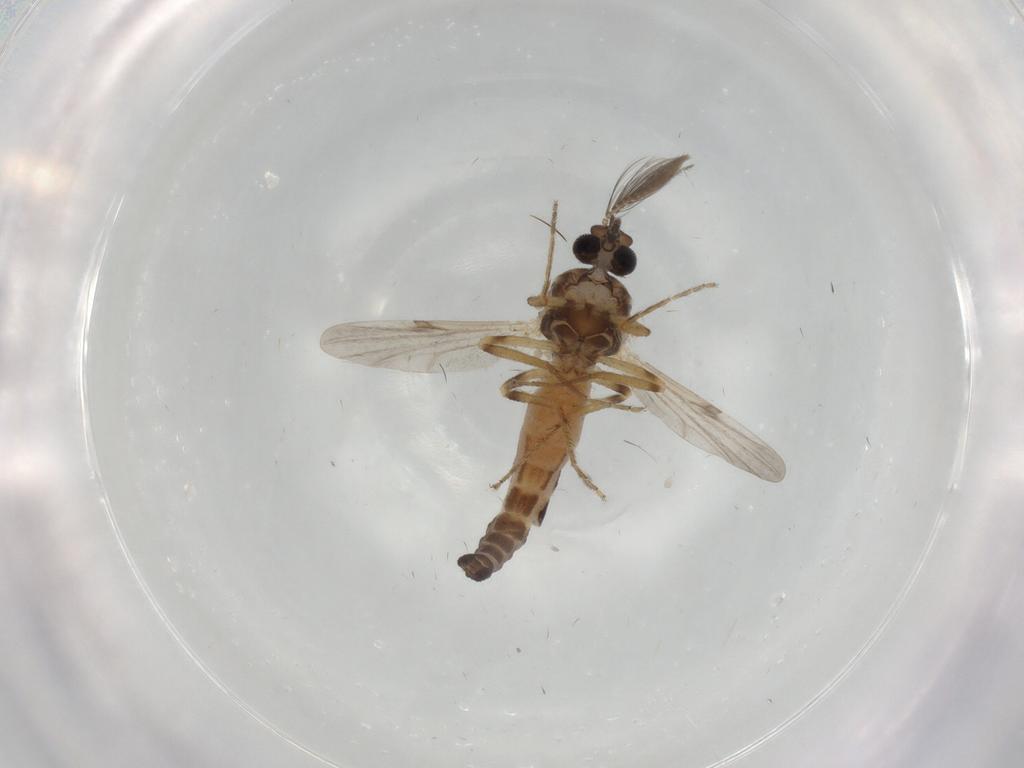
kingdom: Animalia
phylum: Arthropoda
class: Insecta
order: Diptera
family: Ceratopogonidae
